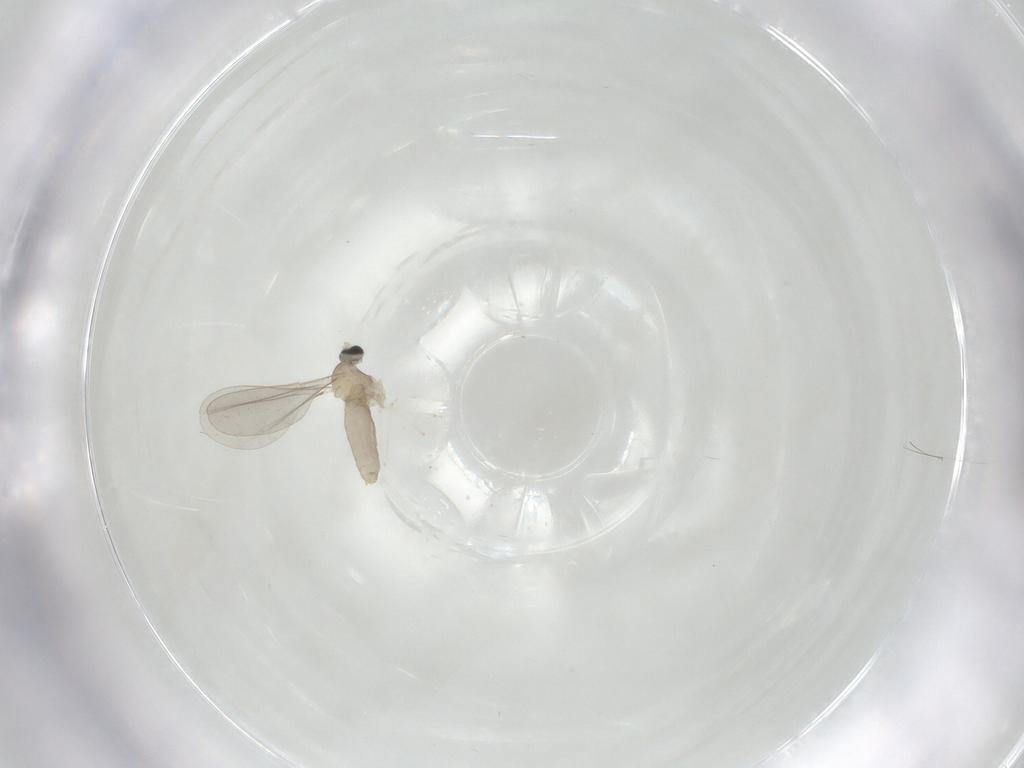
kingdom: Animalia
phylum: Arthropoda
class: Insecta
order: Diptera
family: Cecidomyiidae
